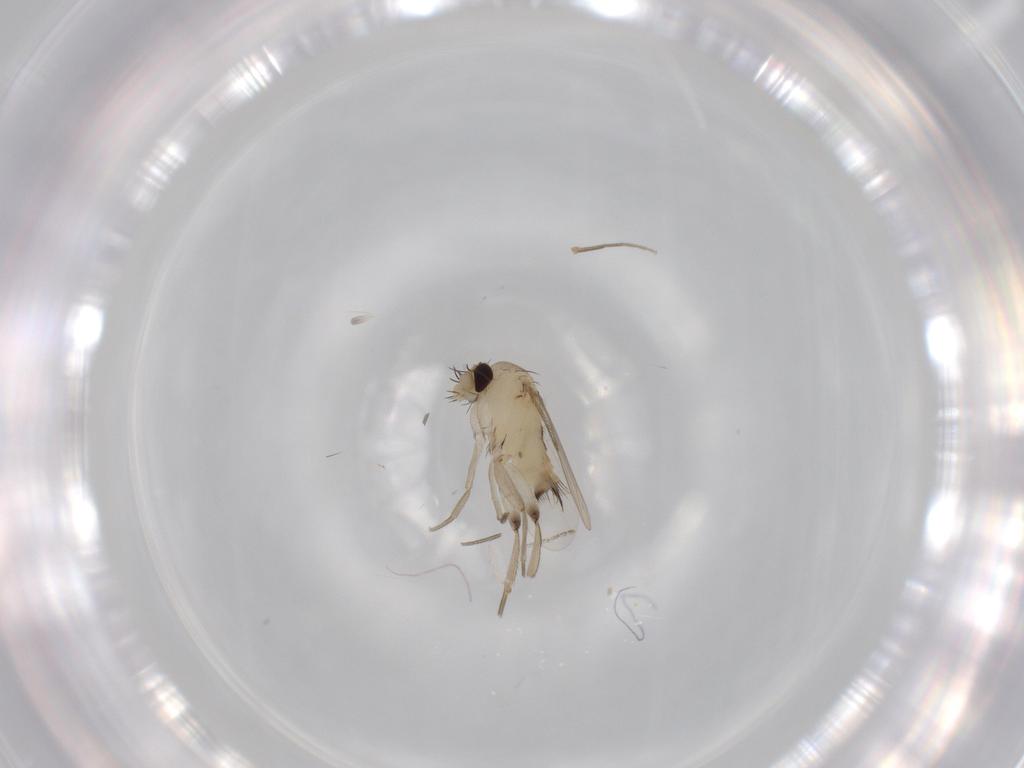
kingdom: Animalia
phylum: Arthropoda
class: Insecta
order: Diptera
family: Phoridae
